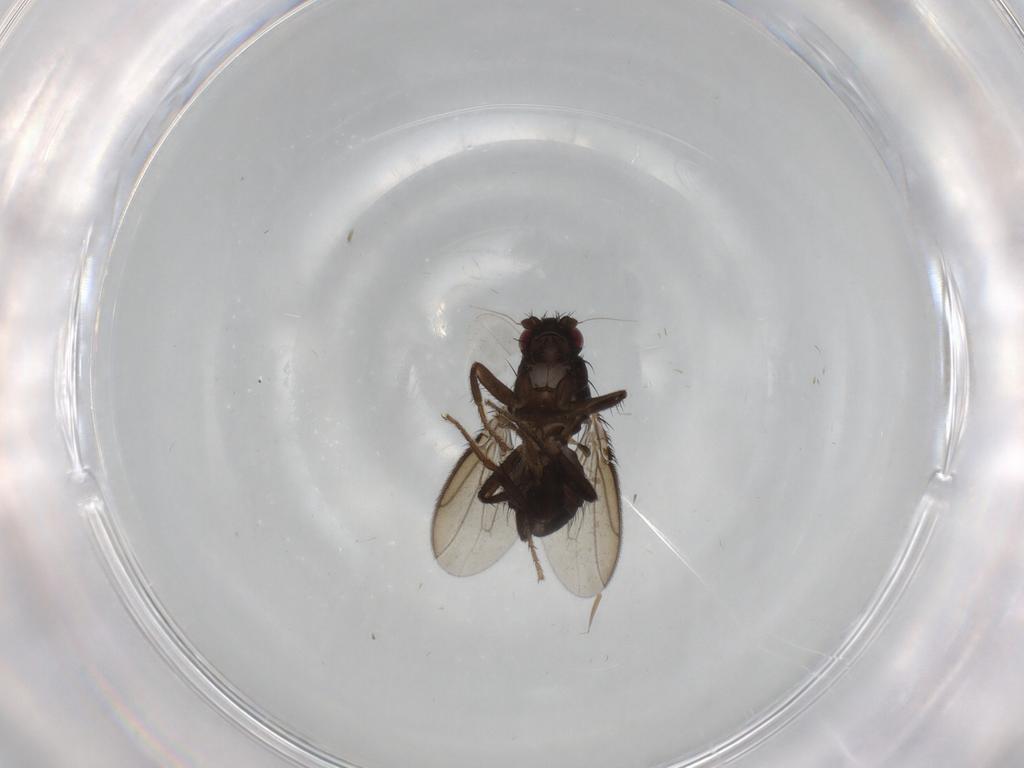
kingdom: Animalia
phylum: Arthropoda
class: Insecta
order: Diptera
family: Sphaeroceridae
